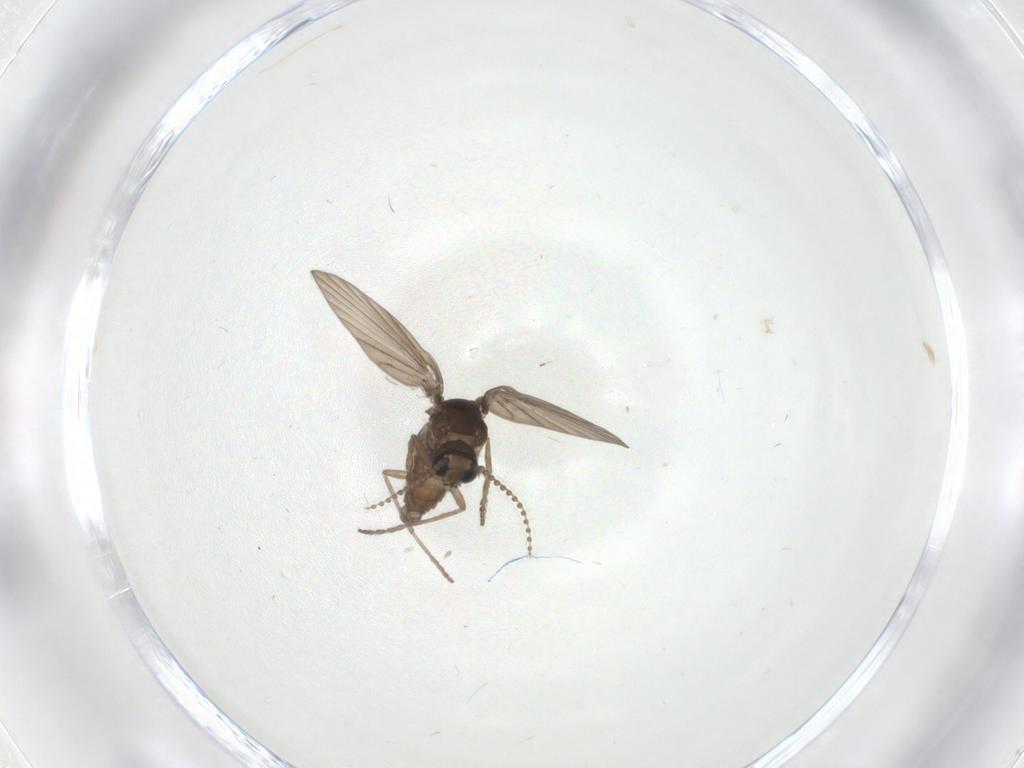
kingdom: Animalia
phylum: Arthropoda
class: Insecta
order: Diptera
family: Psychodidae
